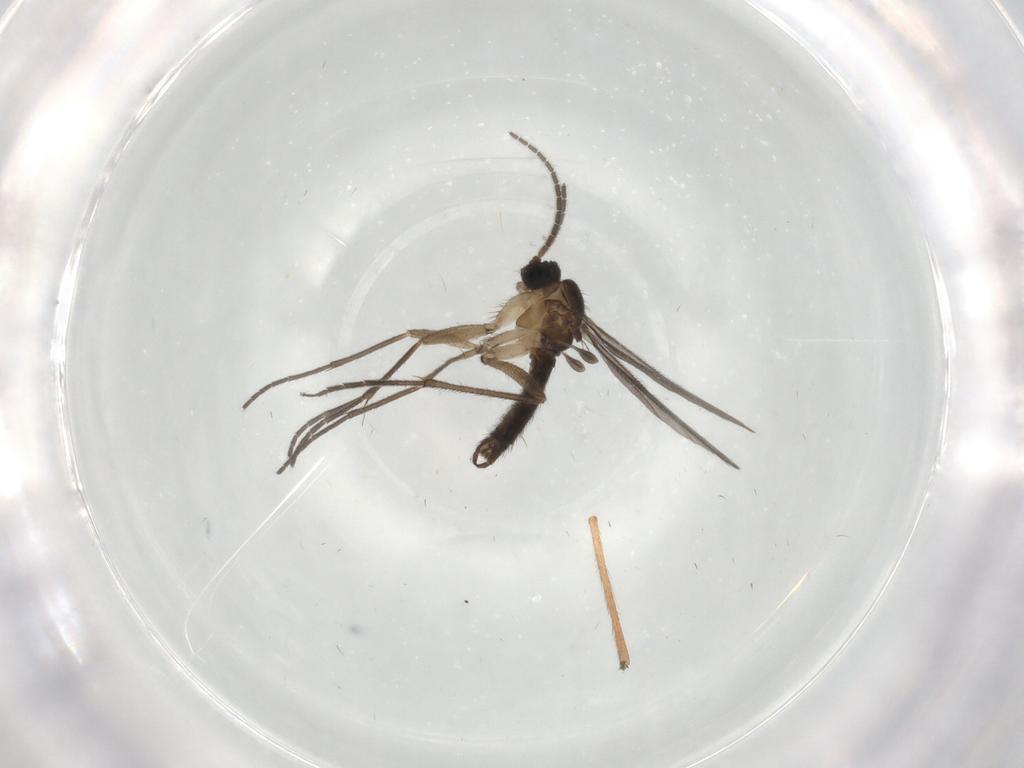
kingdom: Animalia
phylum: Arthropoda
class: Insecta
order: Diptera
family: Sciaridae
